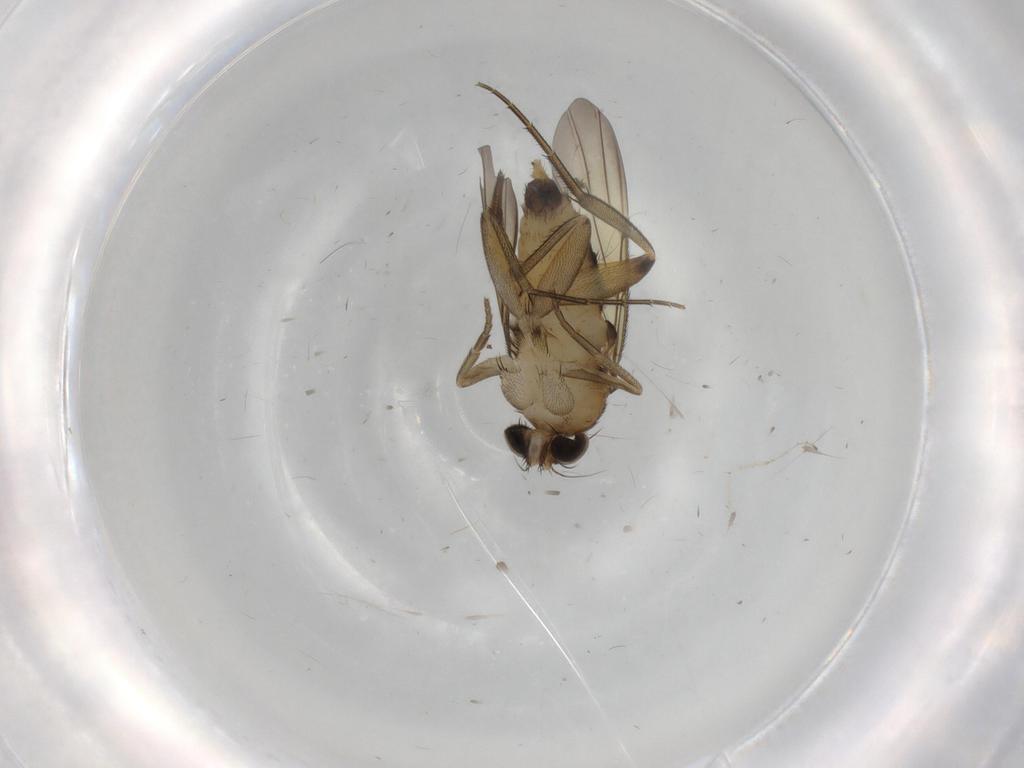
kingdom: Animalia
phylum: Arthropoda
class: Insecta
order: Diptera
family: Phoridae
